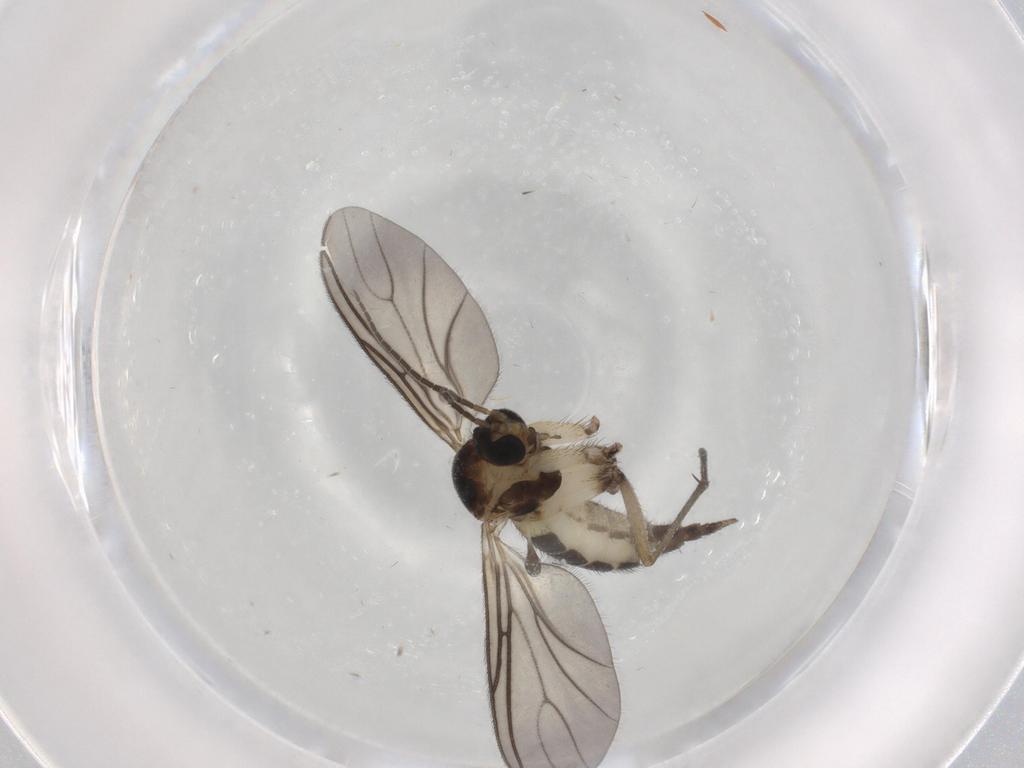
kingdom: Animalia
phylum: Arthropoda
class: Insecta
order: Diptera
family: Sciaridae
